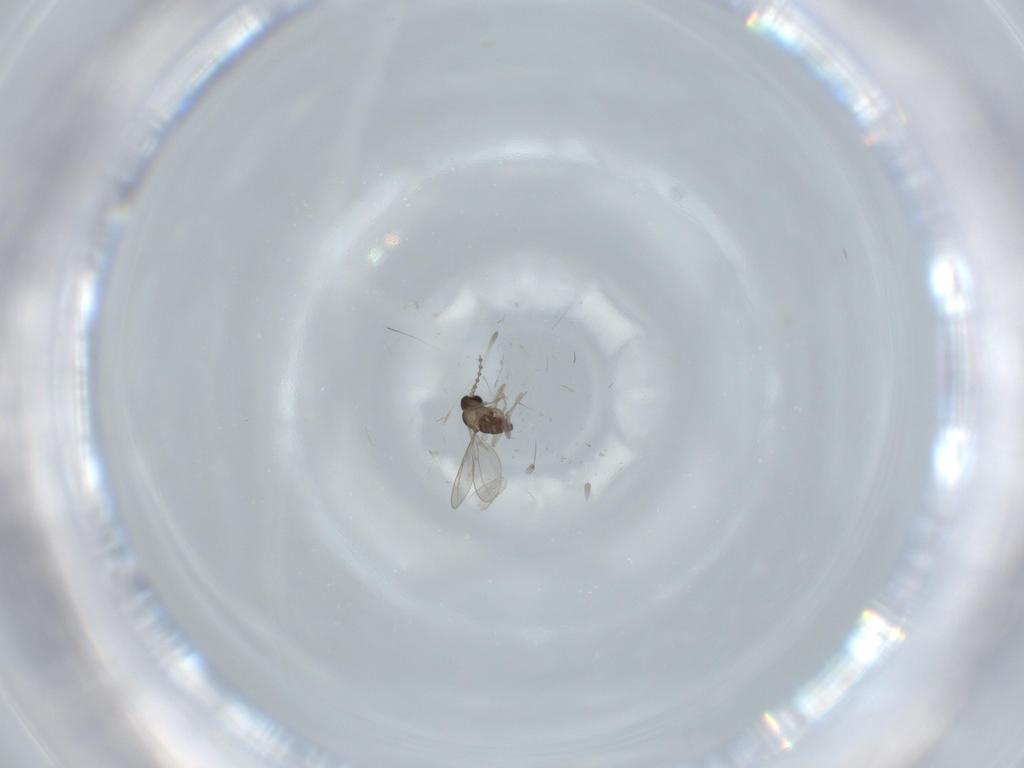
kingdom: Animalia
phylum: Arthropoda
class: Insecta
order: Diptera
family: Cecidomyiidae
